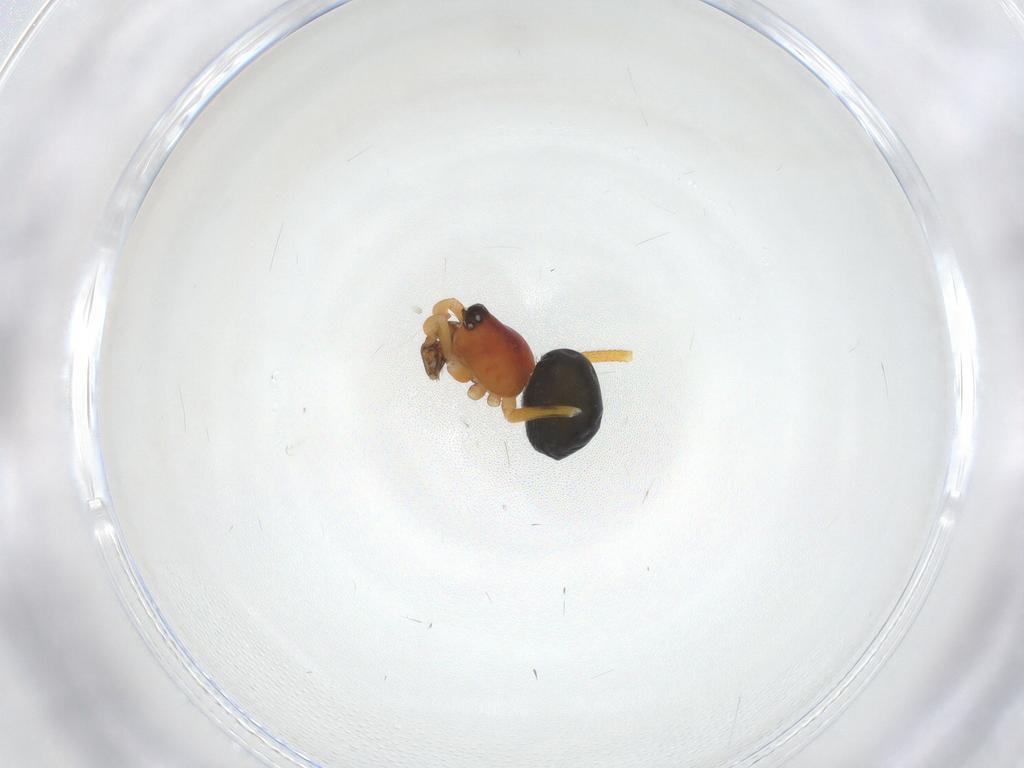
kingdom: Animalia
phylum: Arthropoda
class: Arachnida
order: Araneae
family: Theridiidae
